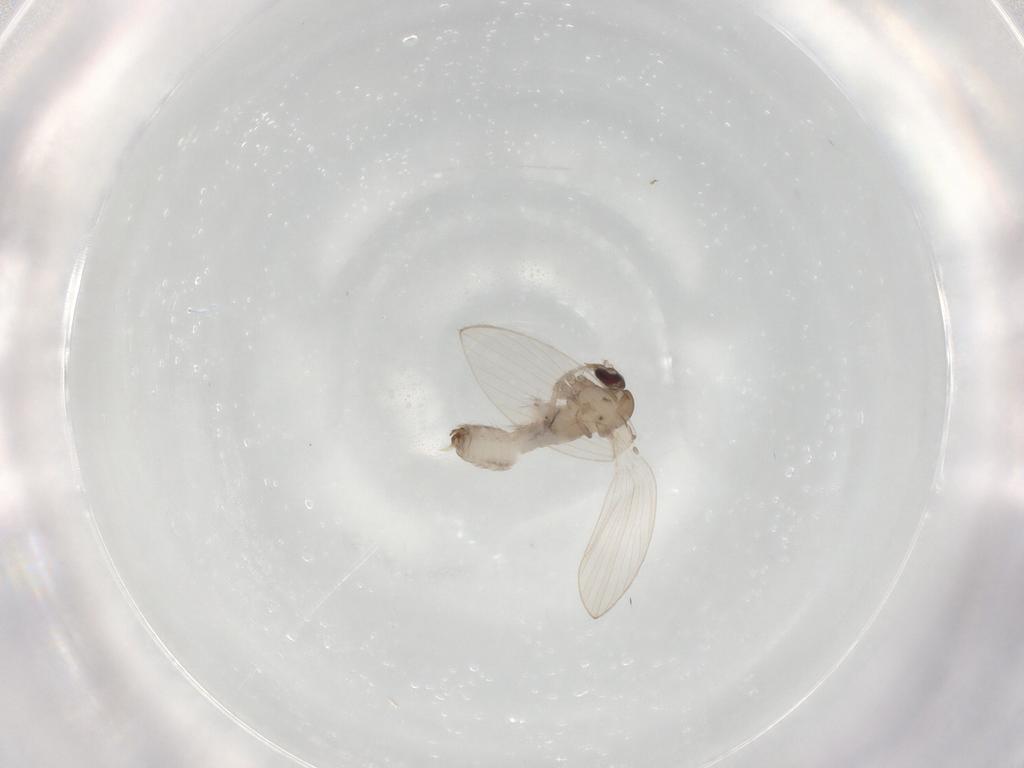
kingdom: Animalia
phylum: Arthropoda
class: Insecta
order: Diptera
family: Psychodidae
